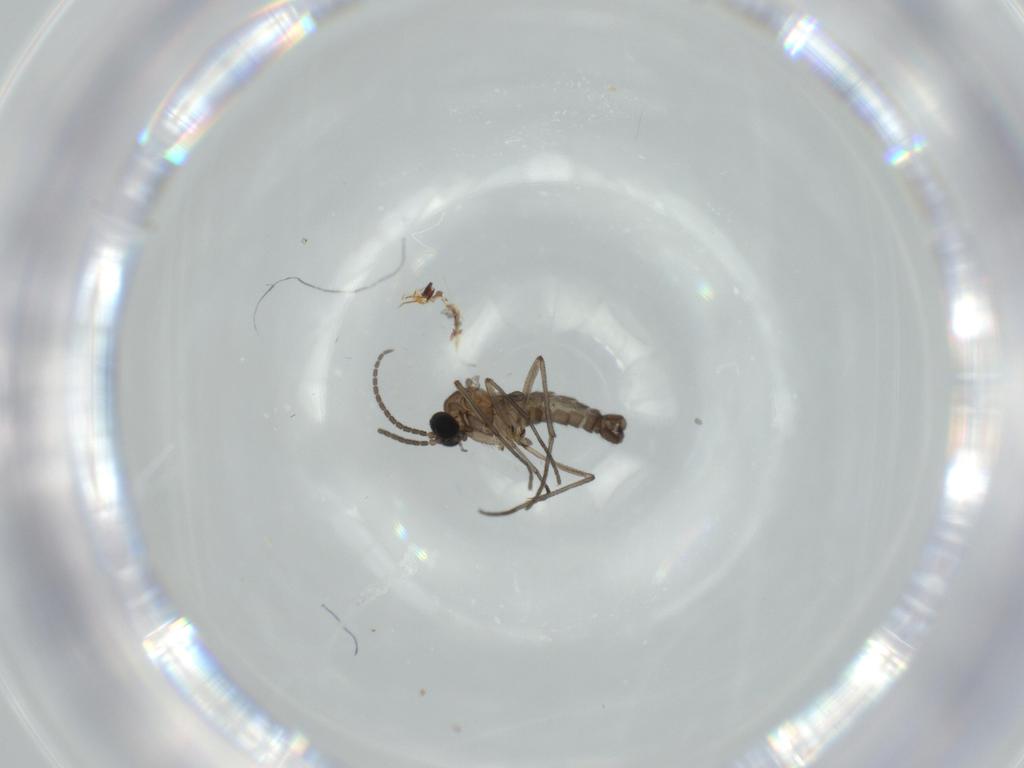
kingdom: Animalia
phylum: Arthropoda
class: Insecta
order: Diptera
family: Sciaridae
